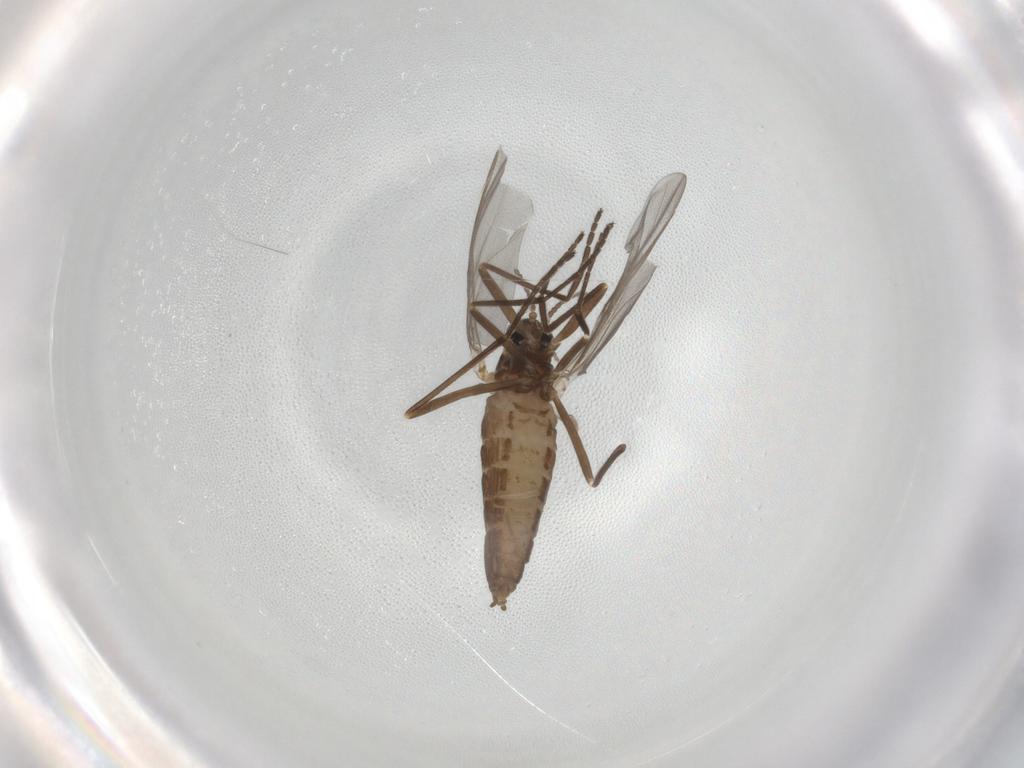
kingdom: Animalia
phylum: Arthropoda
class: Insecta
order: Diptera
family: Cecidomyiidae
